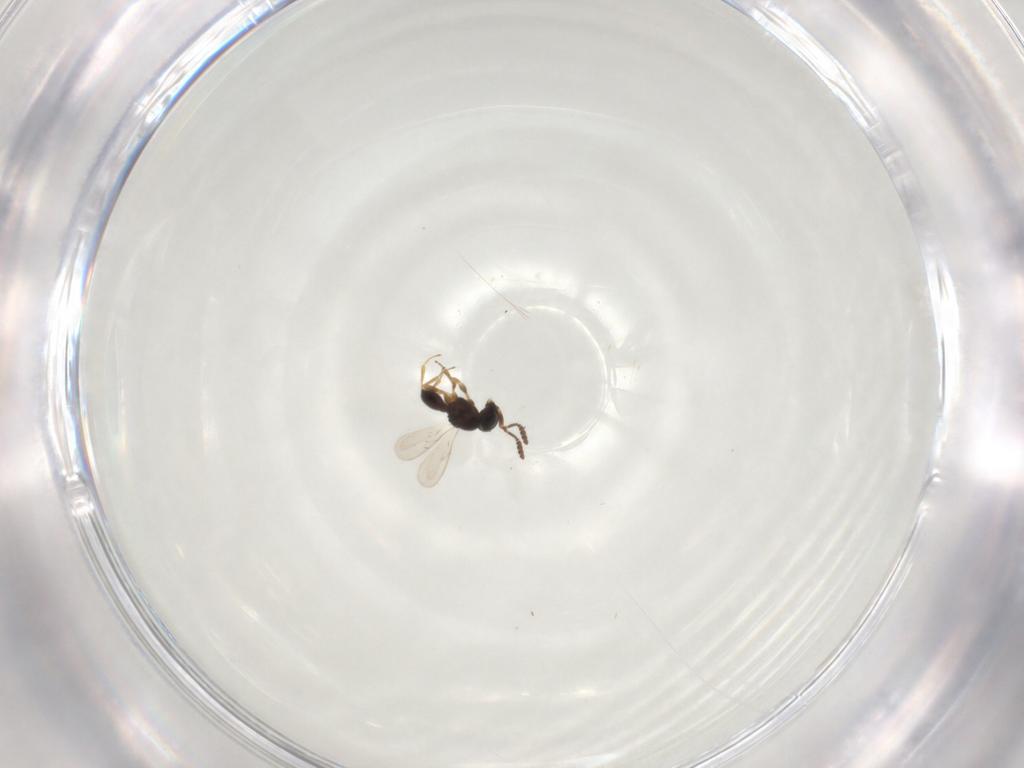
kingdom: Animalia
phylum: Arthropoda
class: Insecta
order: Hymenoptera
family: Scelionidae
